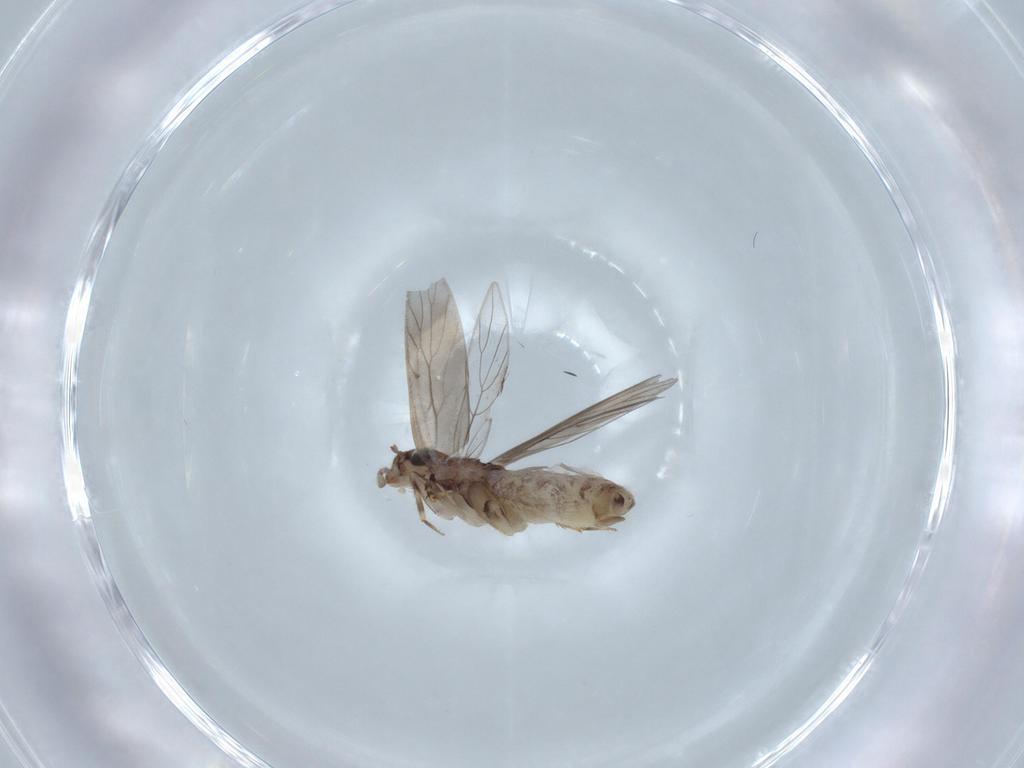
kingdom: Animalia
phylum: Arthropoda
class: Insecta
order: Psocodea
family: Lepidopsocidae
